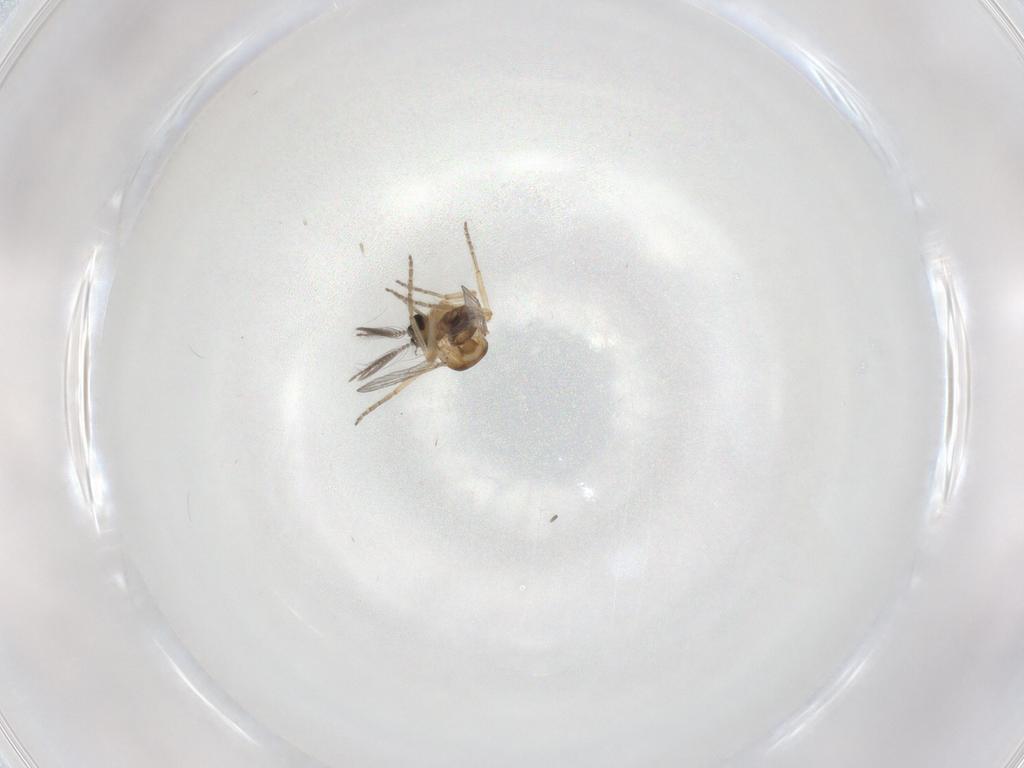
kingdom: Animalia
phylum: Arthropoda
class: Insecta
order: Diptera
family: Ceratopogonidae
